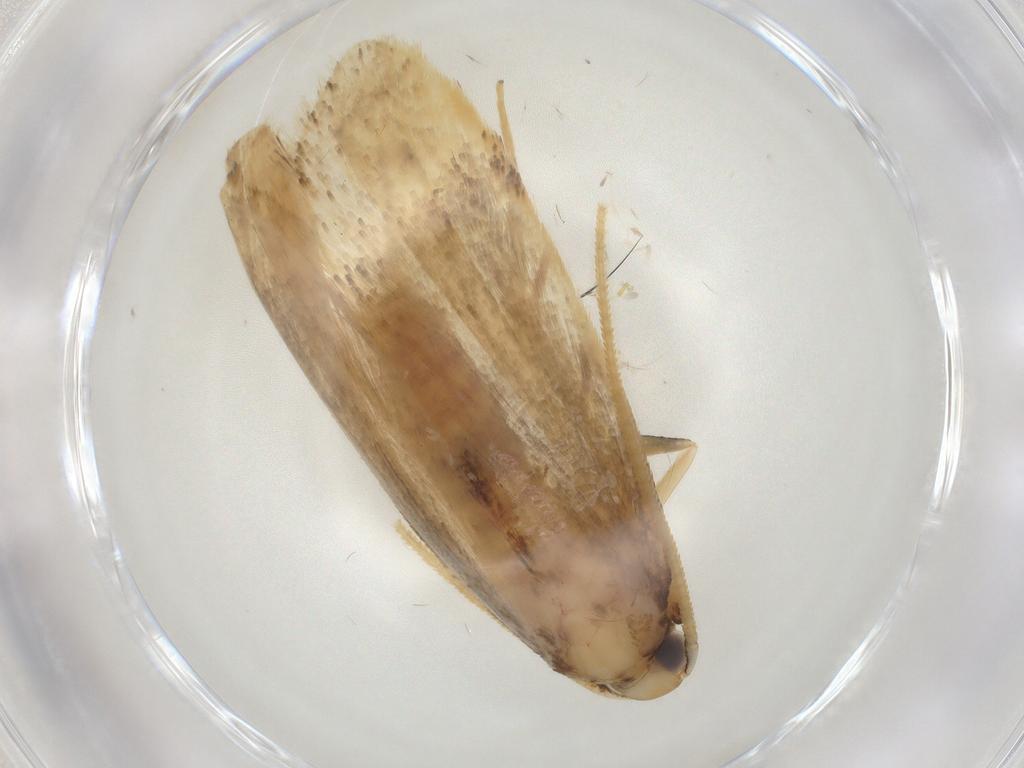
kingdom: Animalia
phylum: Arthropoda
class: Insecta
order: Lepidoptera
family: Lecithoceridae
